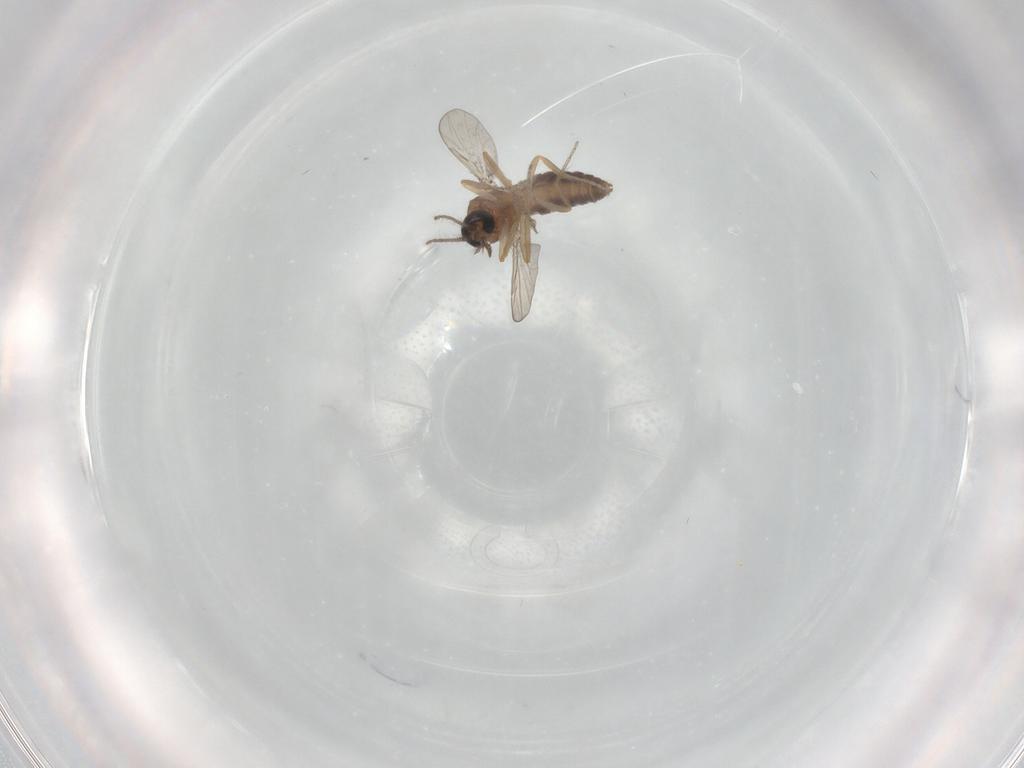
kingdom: Animalia
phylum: Arthropoda
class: Insecta
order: Diptera
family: Ceratopogonidae
